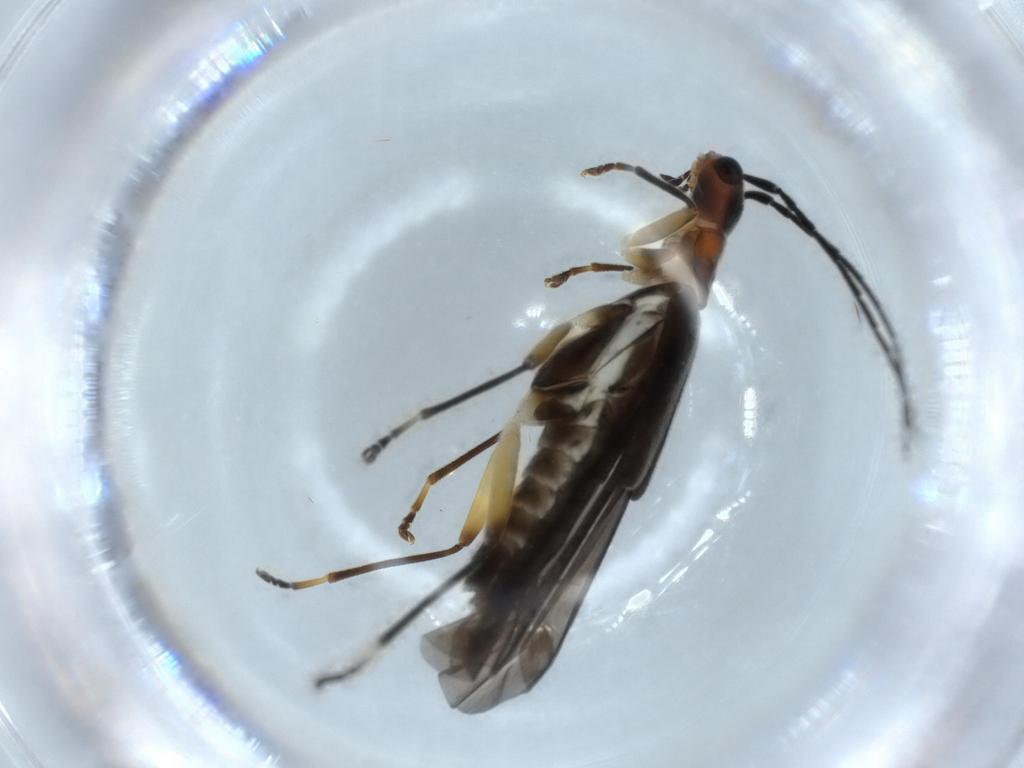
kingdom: Animalia
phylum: Arthropoda
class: Insecta
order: Coleoptera
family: Cantharidae
